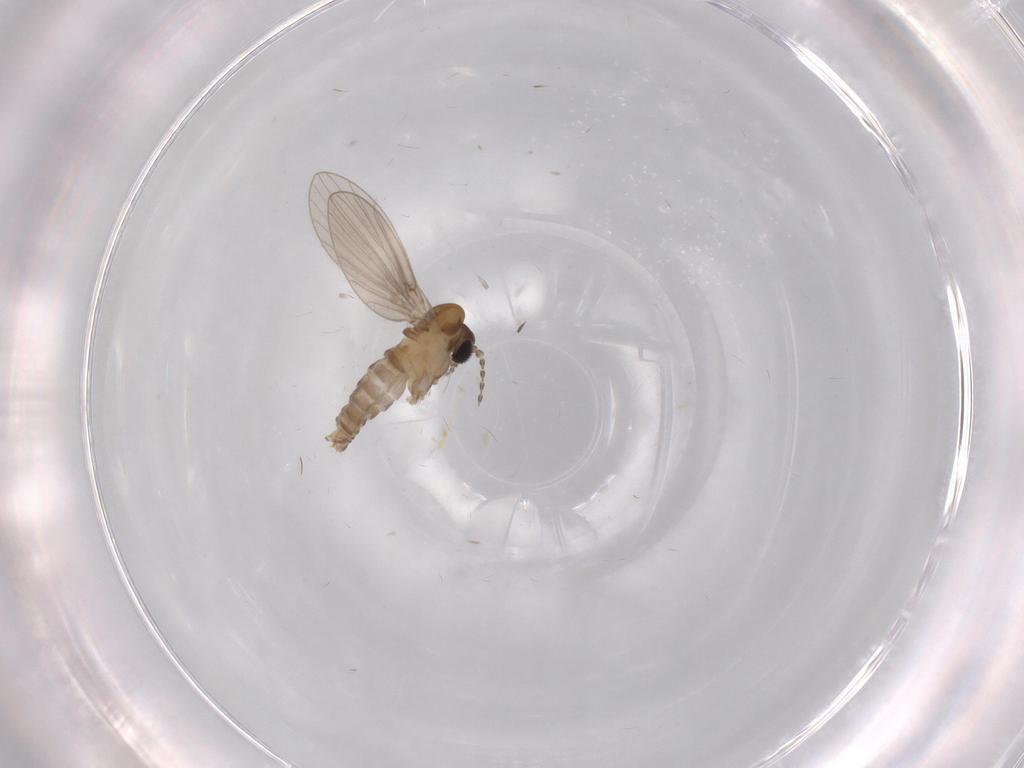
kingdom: Animalia
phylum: Arthropoda
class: Insecta
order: Diptera
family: Psychodidae
